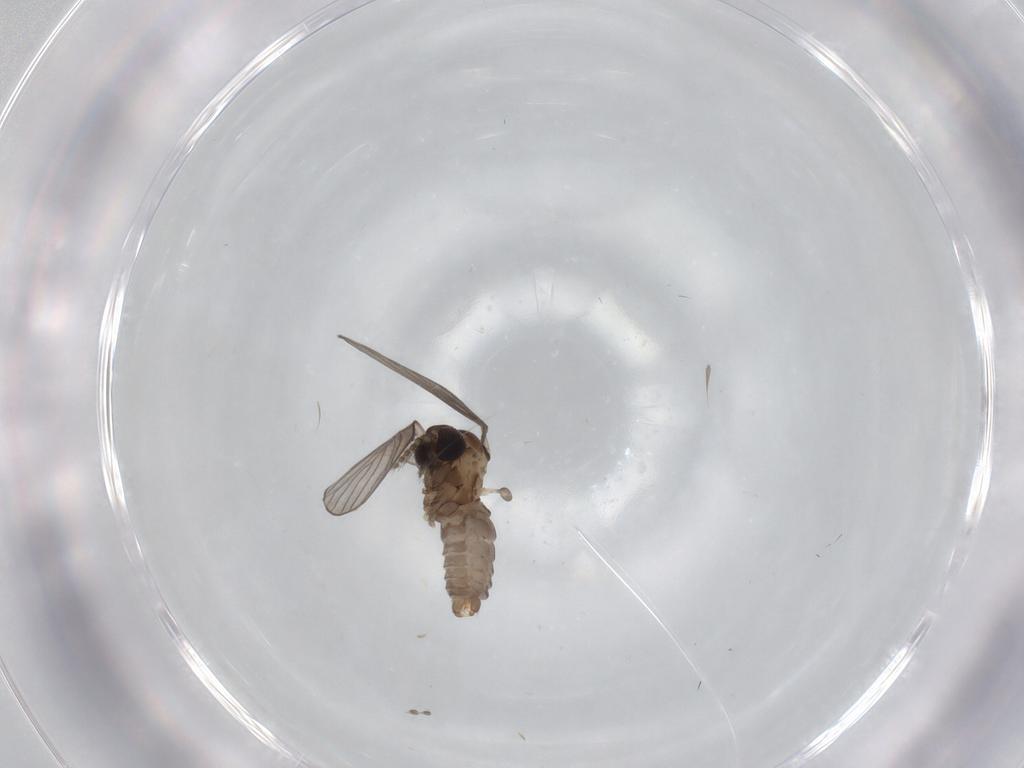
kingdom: Animalia
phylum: Arthropoda
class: Insecta
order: Diptera
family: Psychodidae
